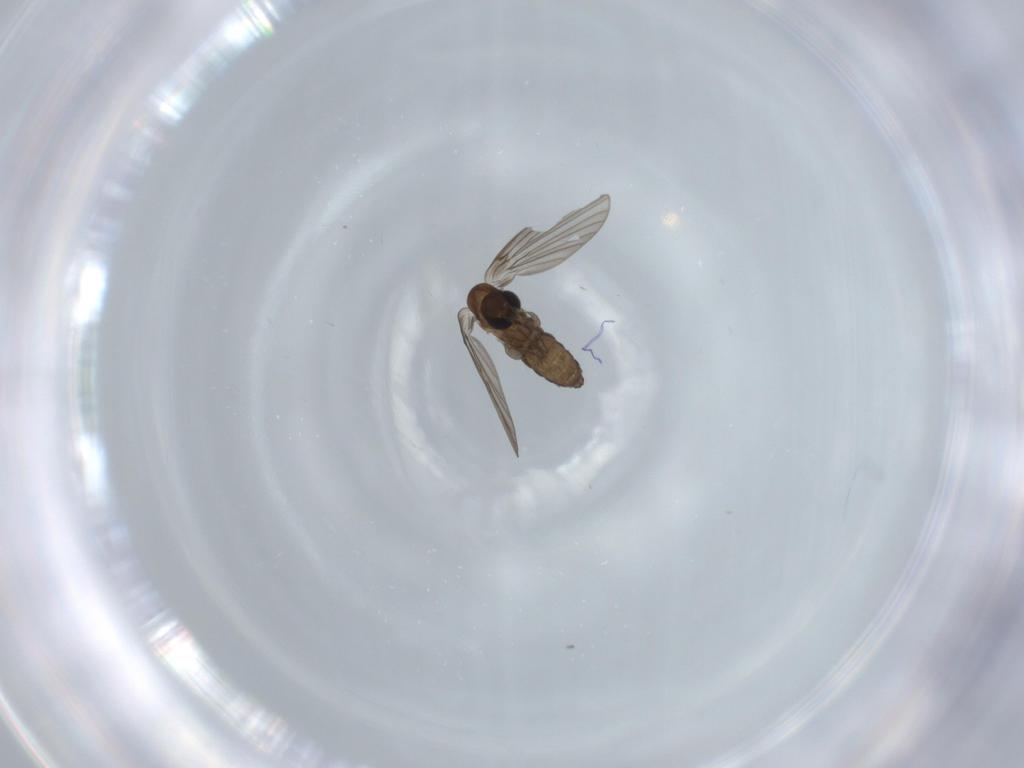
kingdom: Animalia
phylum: Arthropoda
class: Insecta
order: Diptera
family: Psychodidae
